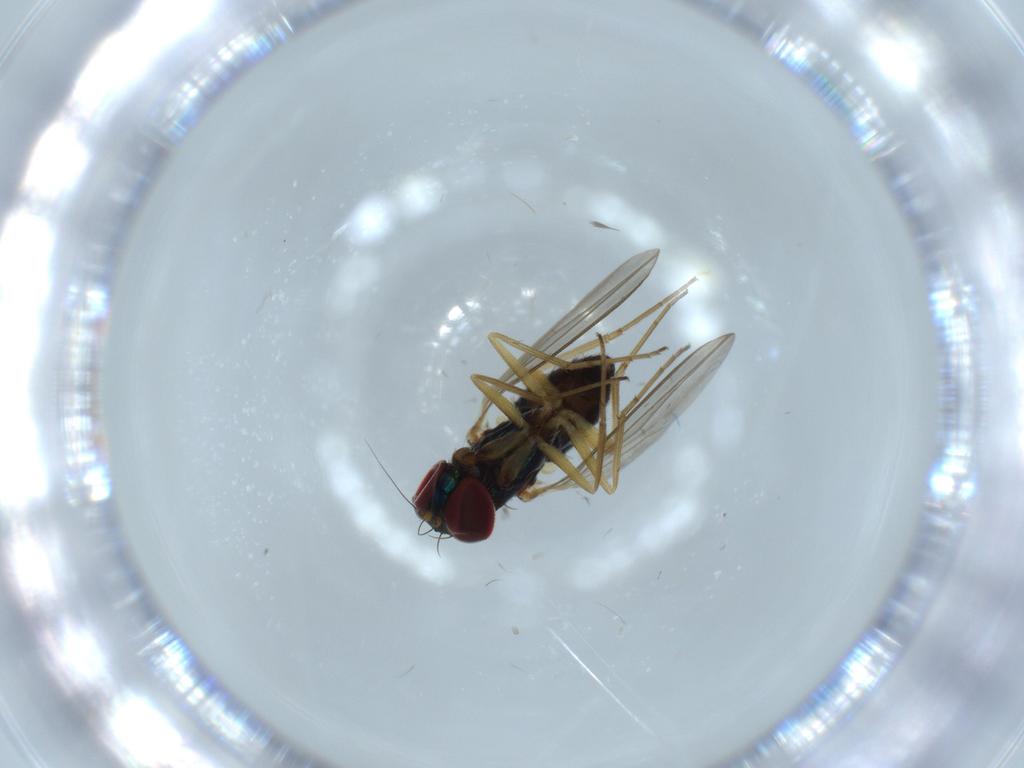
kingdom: Animalia
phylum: Arthropoda
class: Insecta
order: Diptera
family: Dolichopodidae
